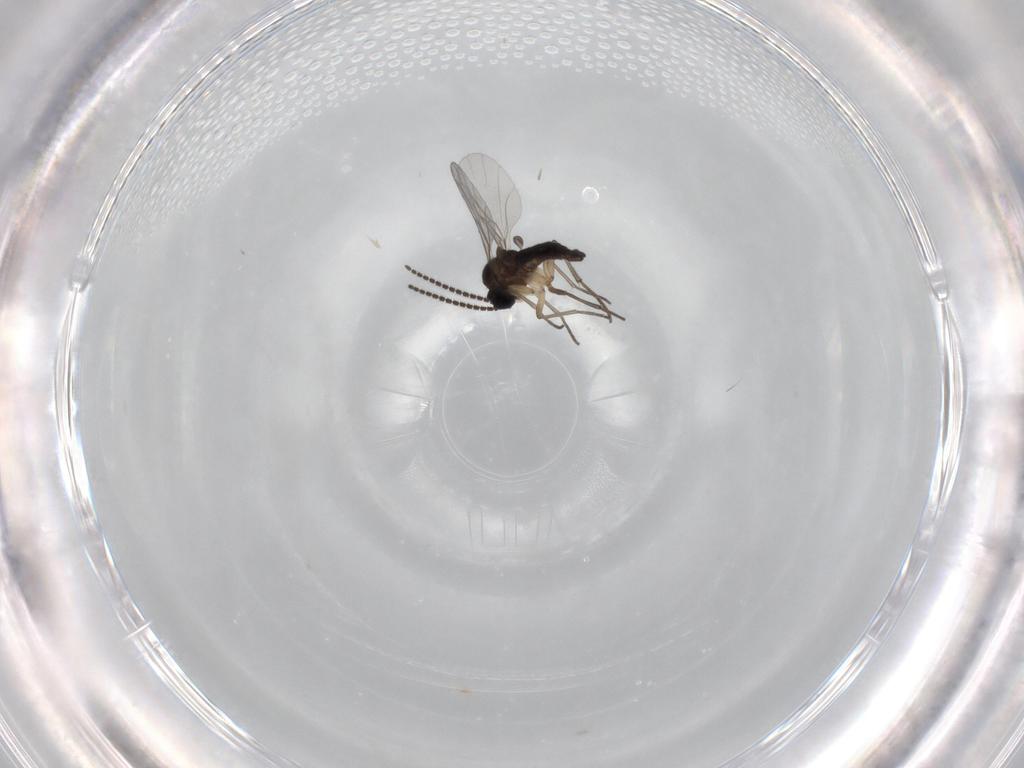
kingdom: Animalia
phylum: Arthropoda
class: Insecta
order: Diptera
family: Sciaridae
